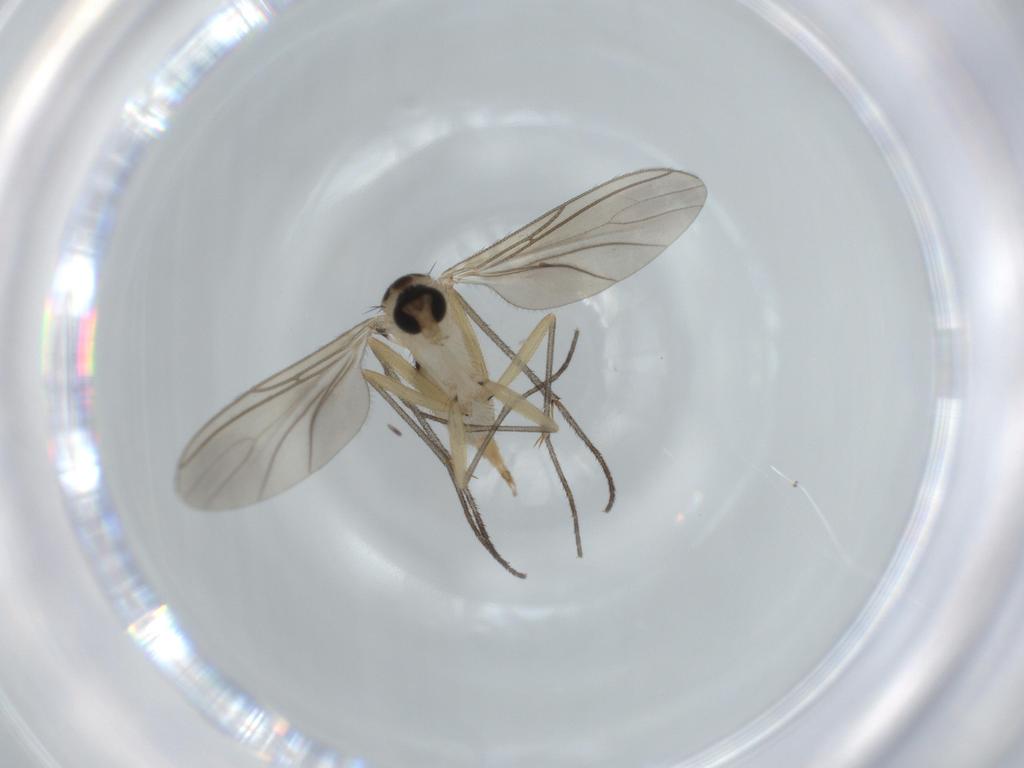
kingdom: Animalia
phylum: Arthropoda
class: Insecta
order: Diptera
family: Sciaridae
